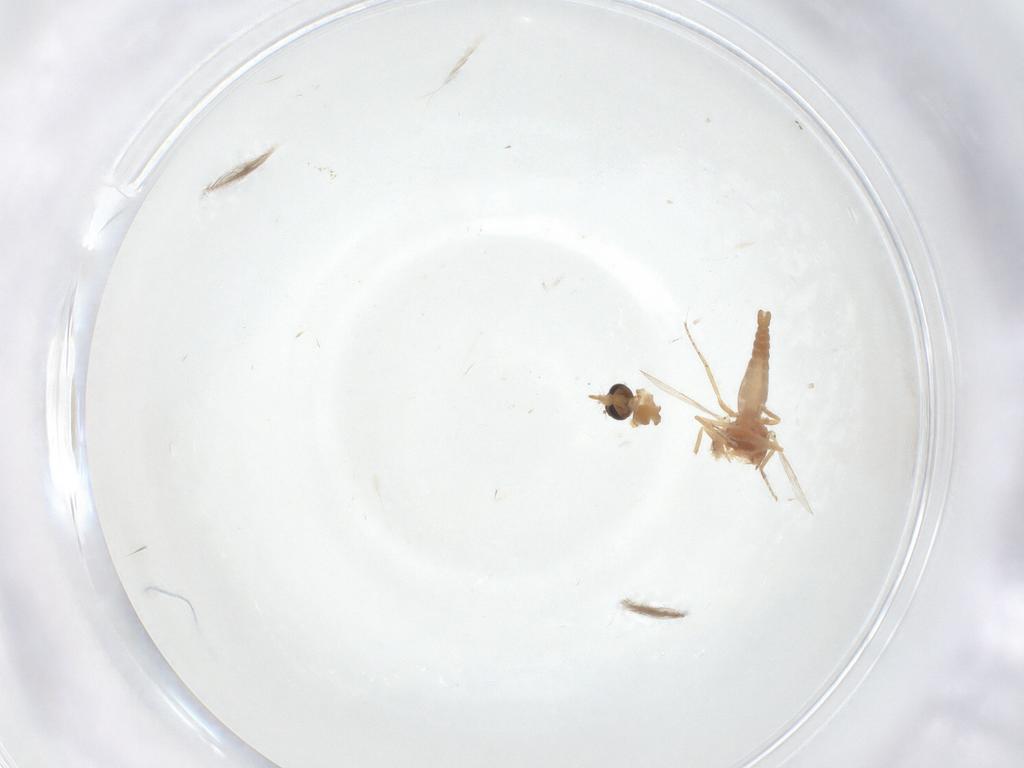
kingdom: Animalia
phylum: Arthropoda
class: Insecta
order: Diptera
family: Ceratopogonidae
